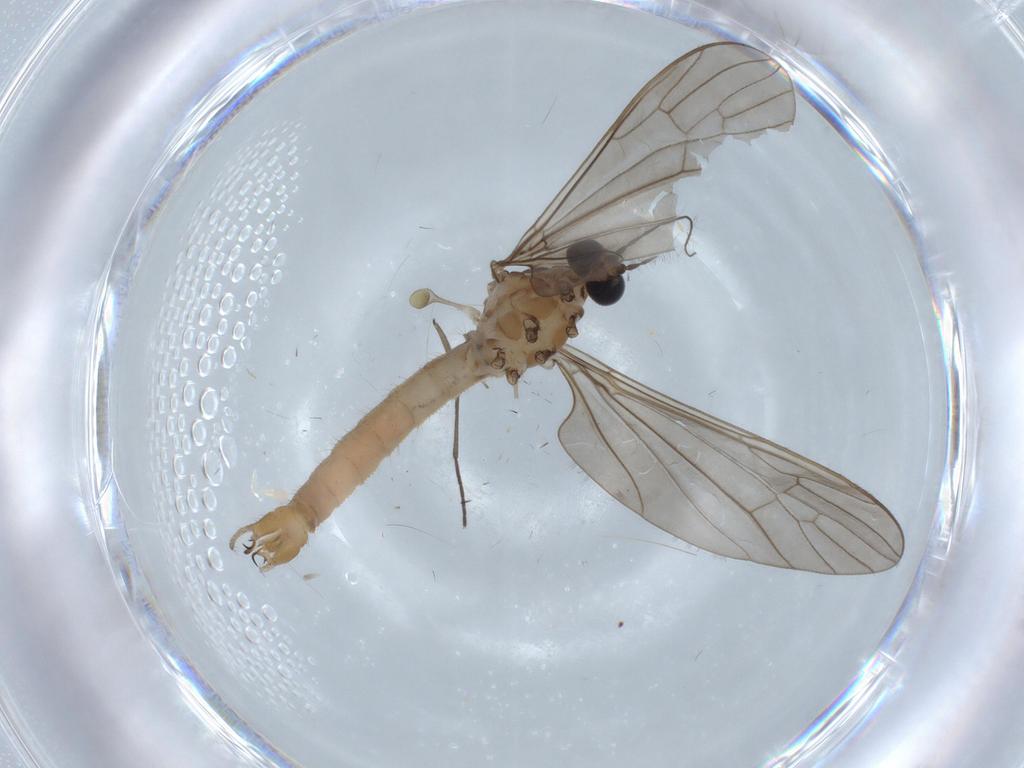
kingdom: Animalia
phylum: Arthropoda
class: Insecta
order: Diptera
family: Limoniidae
